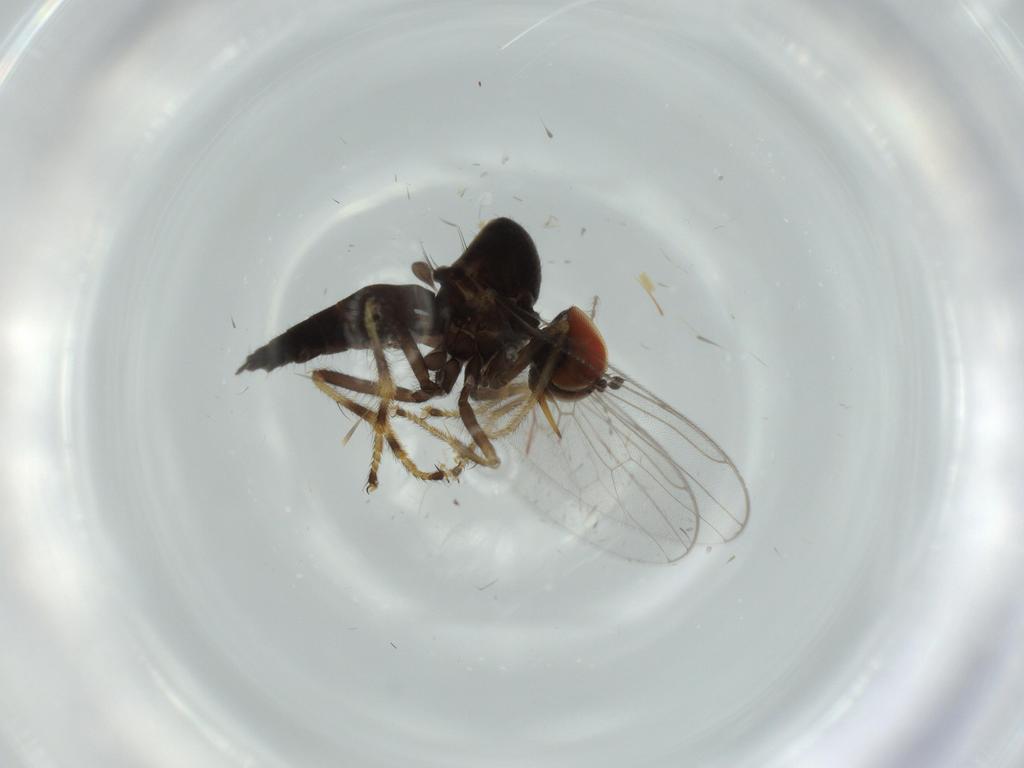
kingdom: Animalia
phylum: Arthropoda
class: Insecta
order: Diptera
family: Hybotidae
